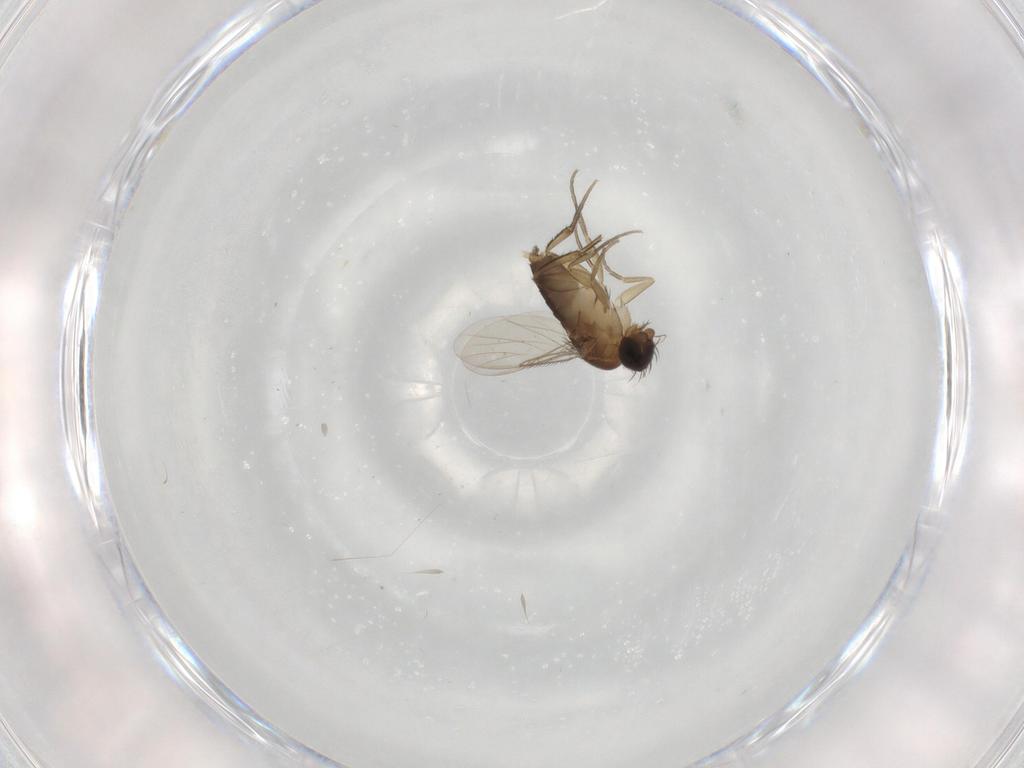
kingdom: Animalia
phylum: Arthropoda
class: Insecta
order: Diptera
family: Phoridae
